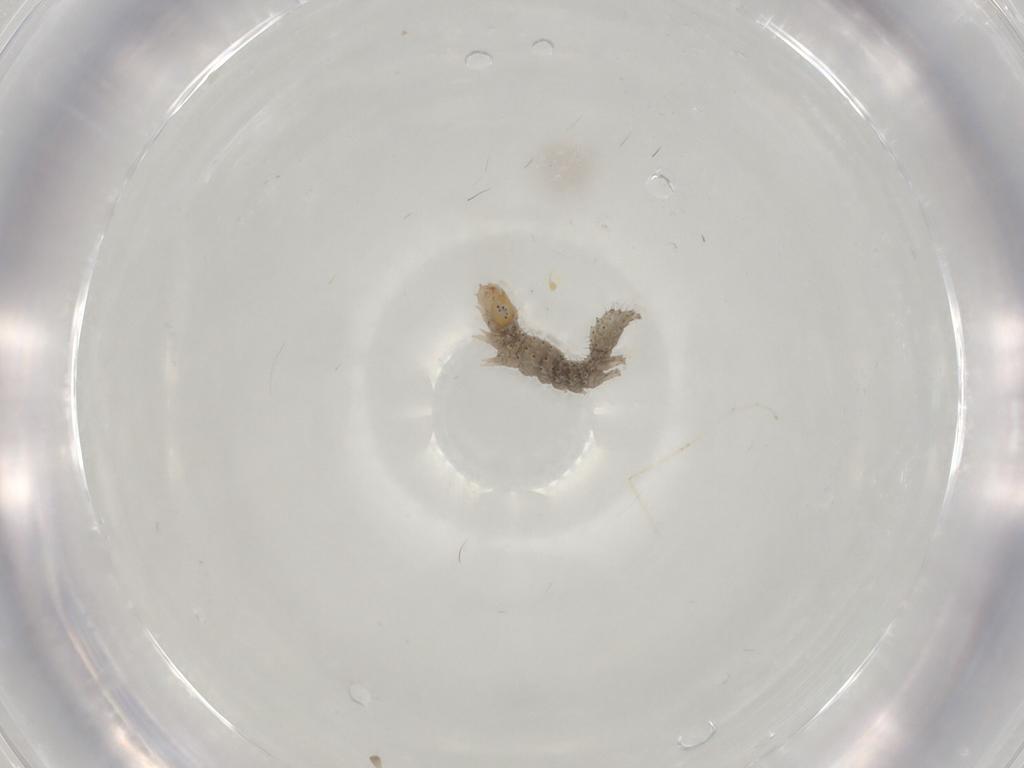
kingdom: Animalia
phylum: Arthropoda
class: Insecta
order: Lepidoptera
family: Erebidae
